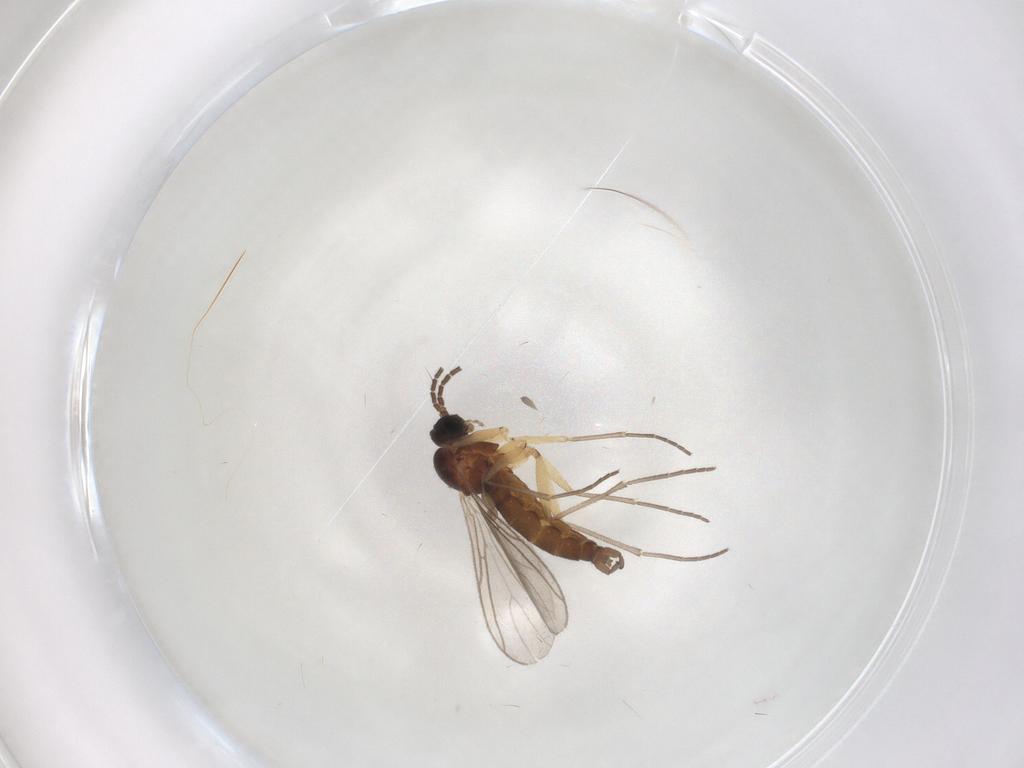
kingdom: Animalia
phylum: Arthropoda
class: Insecta
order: Diptera
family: Sciaridae
